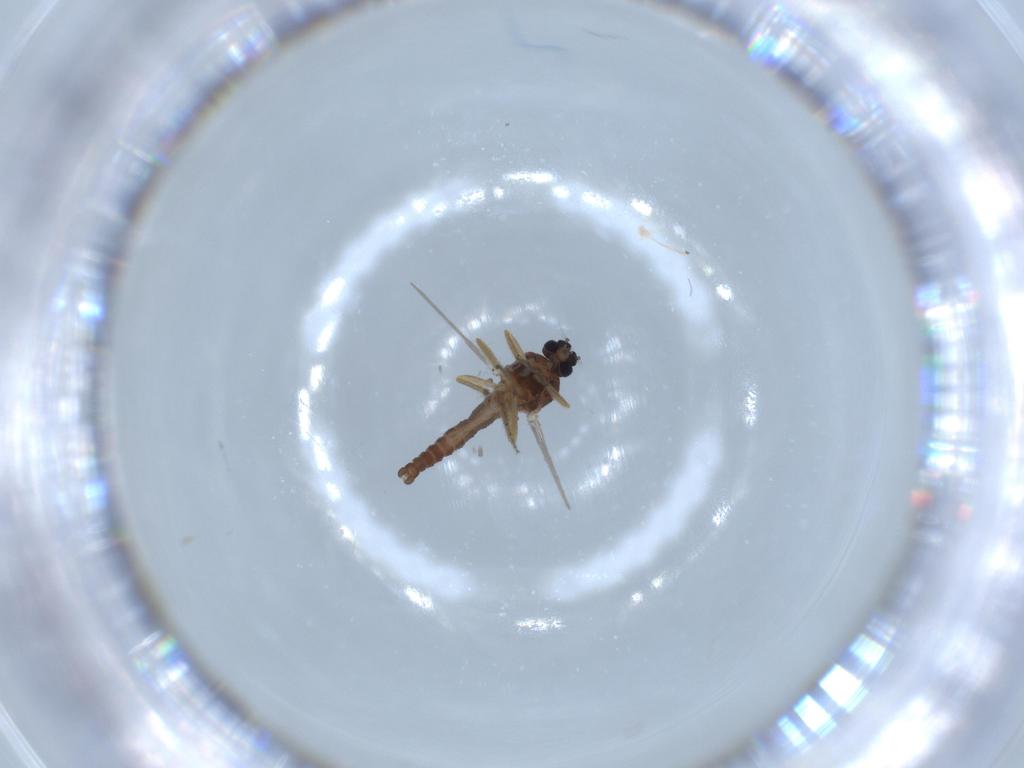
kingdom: Animalia
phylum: Arthropoda
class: Insecta
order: Diptera
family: Ceratopogonidae
